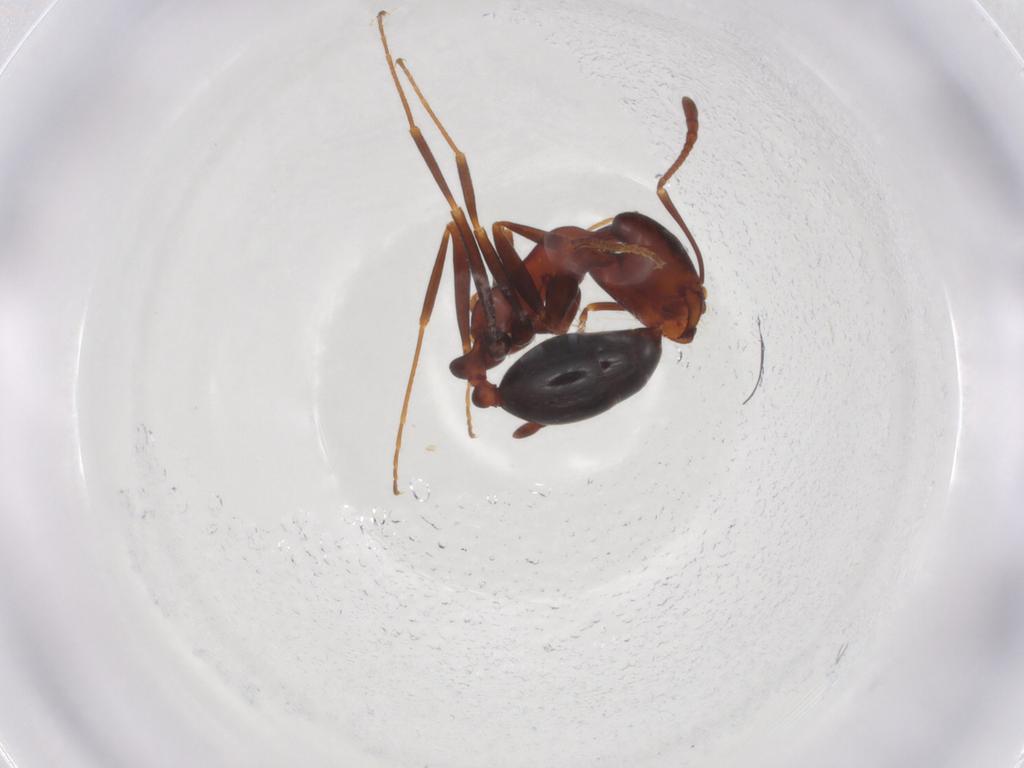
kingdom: Animalia
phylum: Arthropoda
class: Insecta
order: Hymenoptera
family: Formicidae
